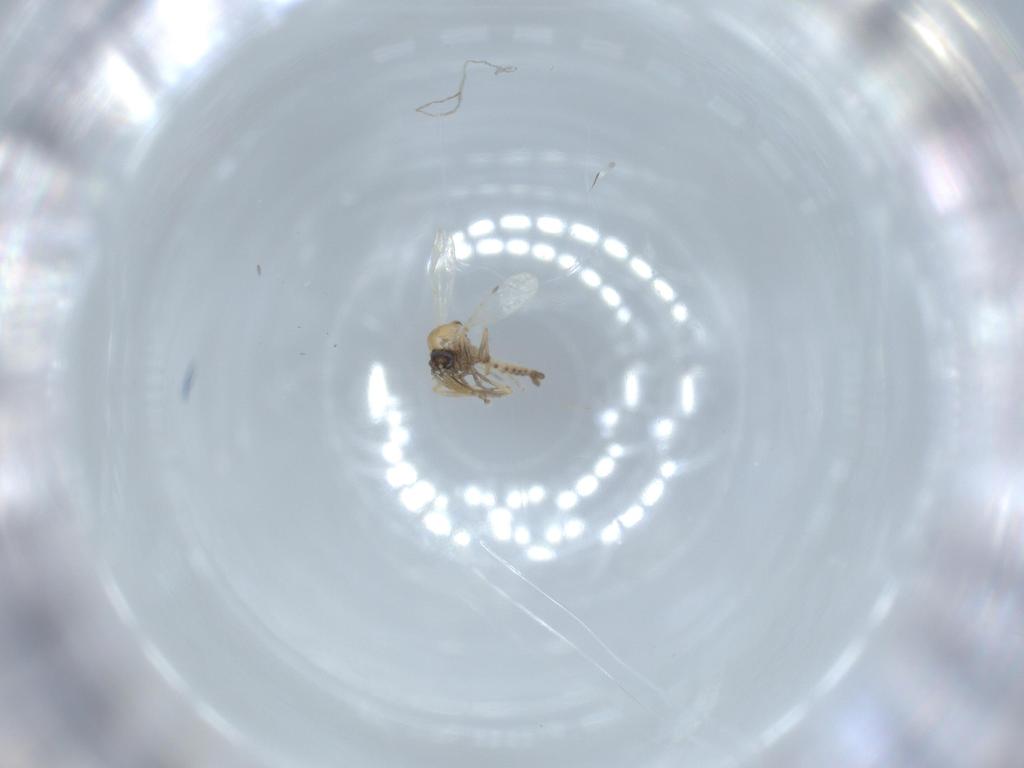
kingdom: Animalia
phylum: Arthropoda
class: Insecta
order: Diptera
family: Cecidomyiidae
